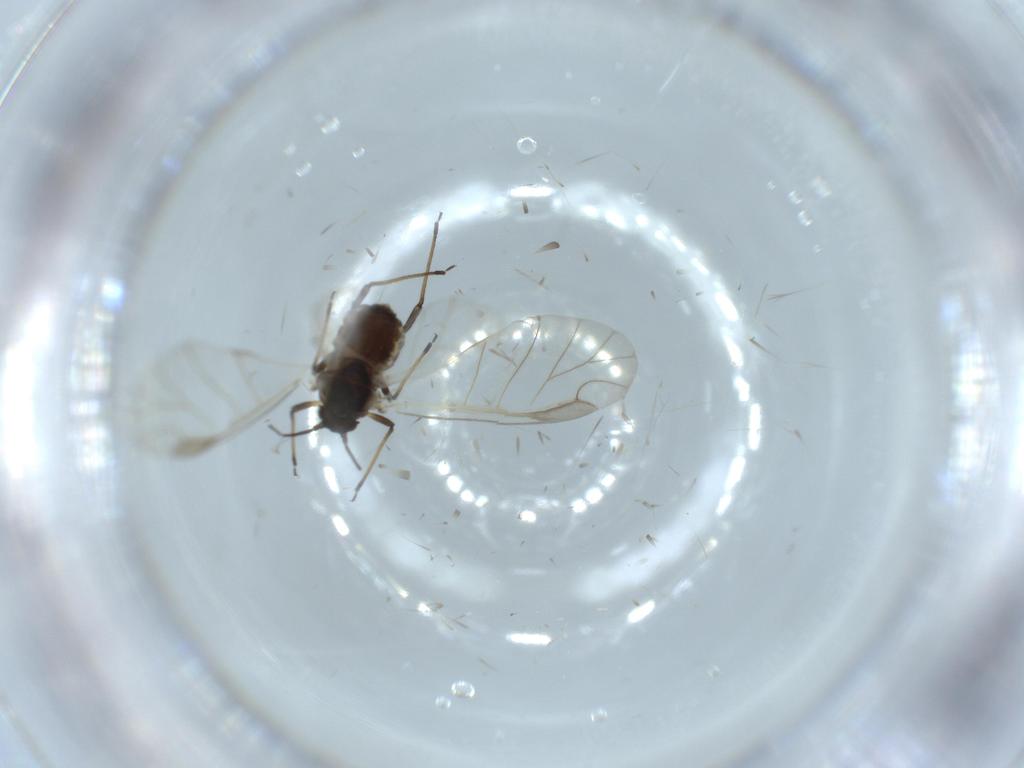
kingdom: Animalia
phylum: Arthropoda
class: Insecta
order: Hemiptera
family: Aphididae
